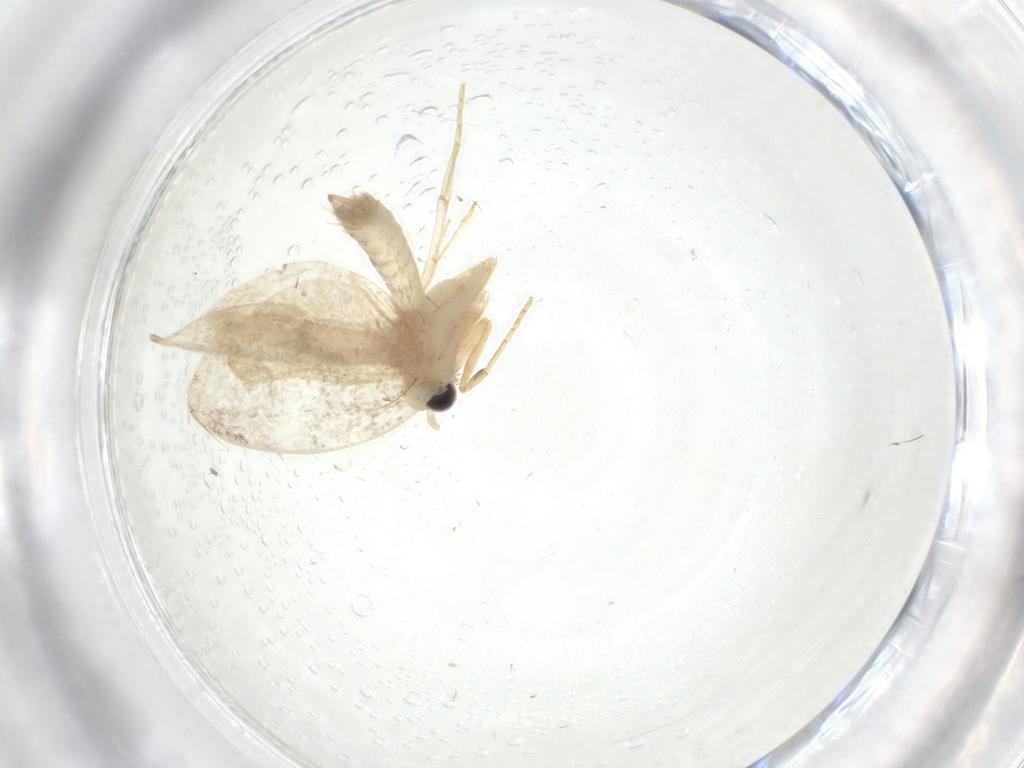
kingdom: Animalia
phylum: Arthropoda
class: Insecta
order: Lepidoptera
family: Psychidae
